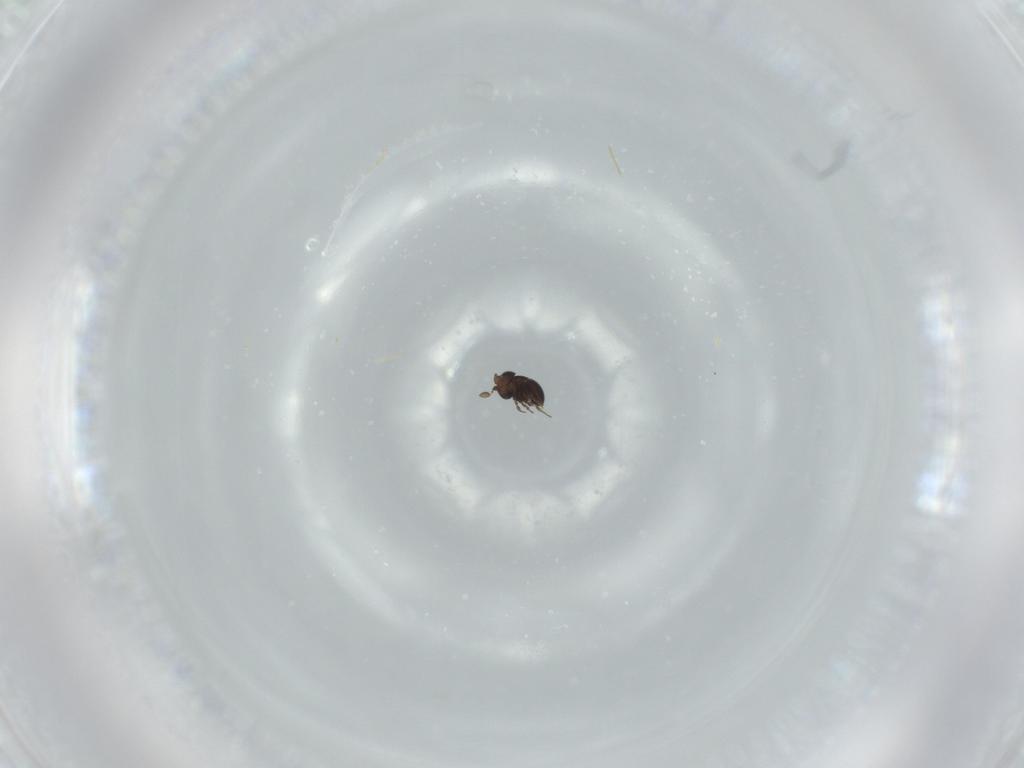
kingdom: Animalia
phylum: Arthropoda
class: Insecta
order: Hymenoptera
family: Scelionidae
